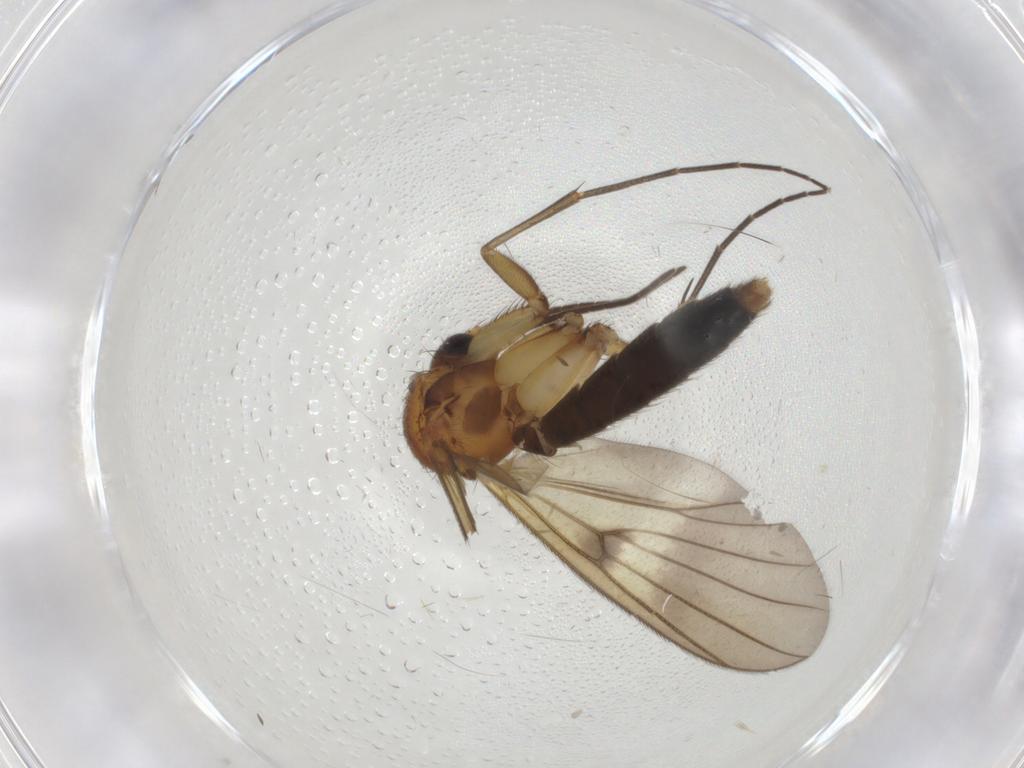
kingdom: Animalia
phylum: Arthropoda
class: Insecta
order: Diptera
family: Mycetophilidae
